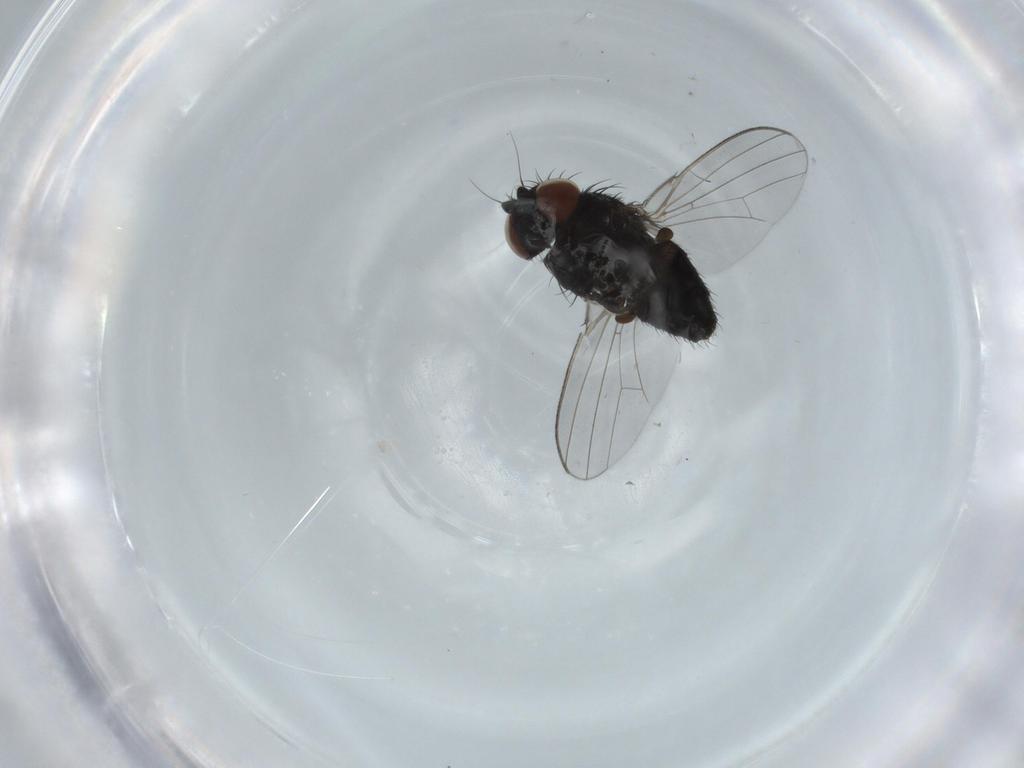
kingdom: Animalia
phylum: Arthropoda
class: Insecta
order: Diptera
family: Milichiidae
